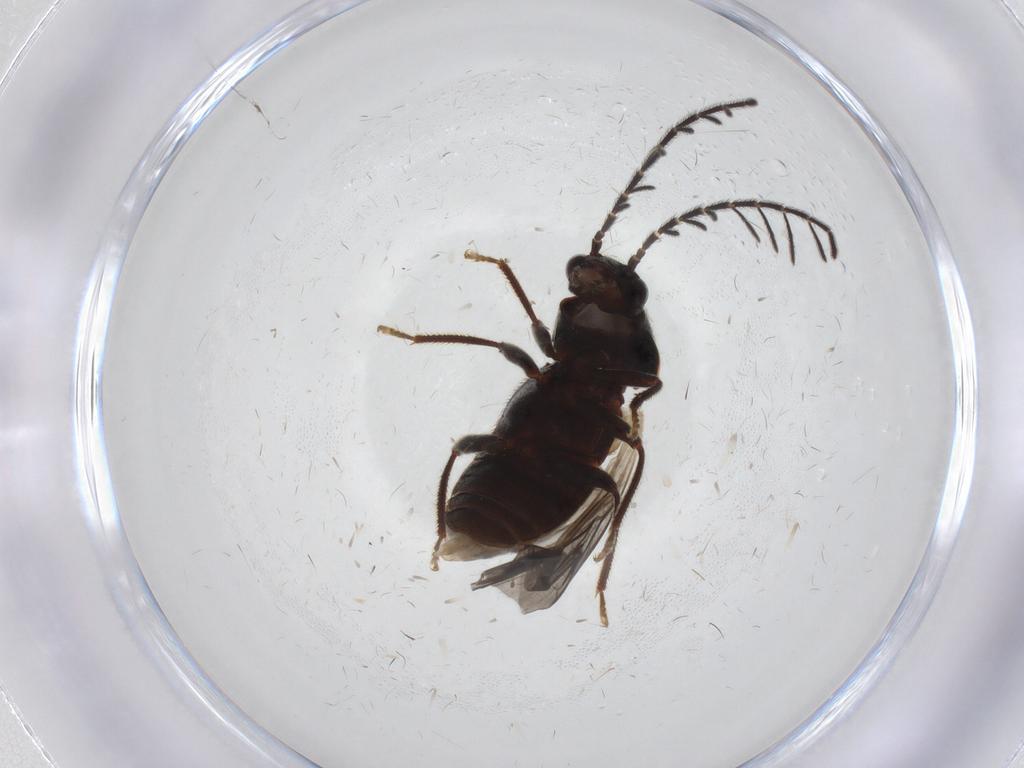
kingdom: Animalia
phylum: Arthropoda
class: Insecta
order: Coleoptera
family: Ptilodactylidae
